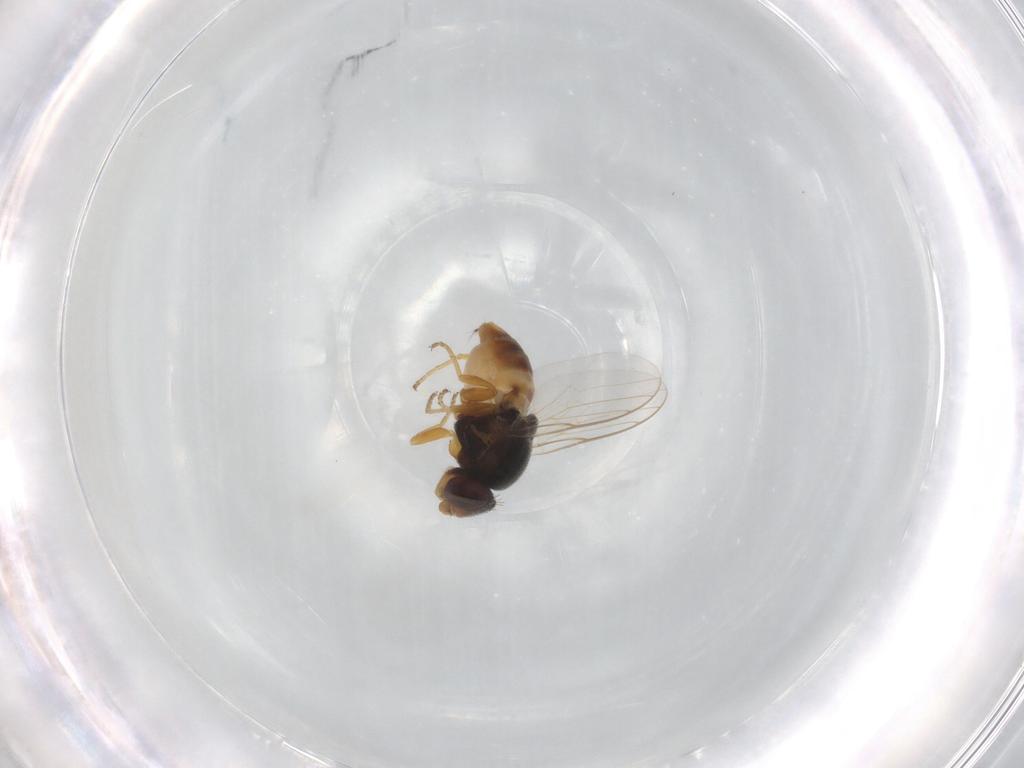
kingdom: Animalia
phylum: Arthropoda
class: Insecta
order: Diptera
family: Chloropidae
